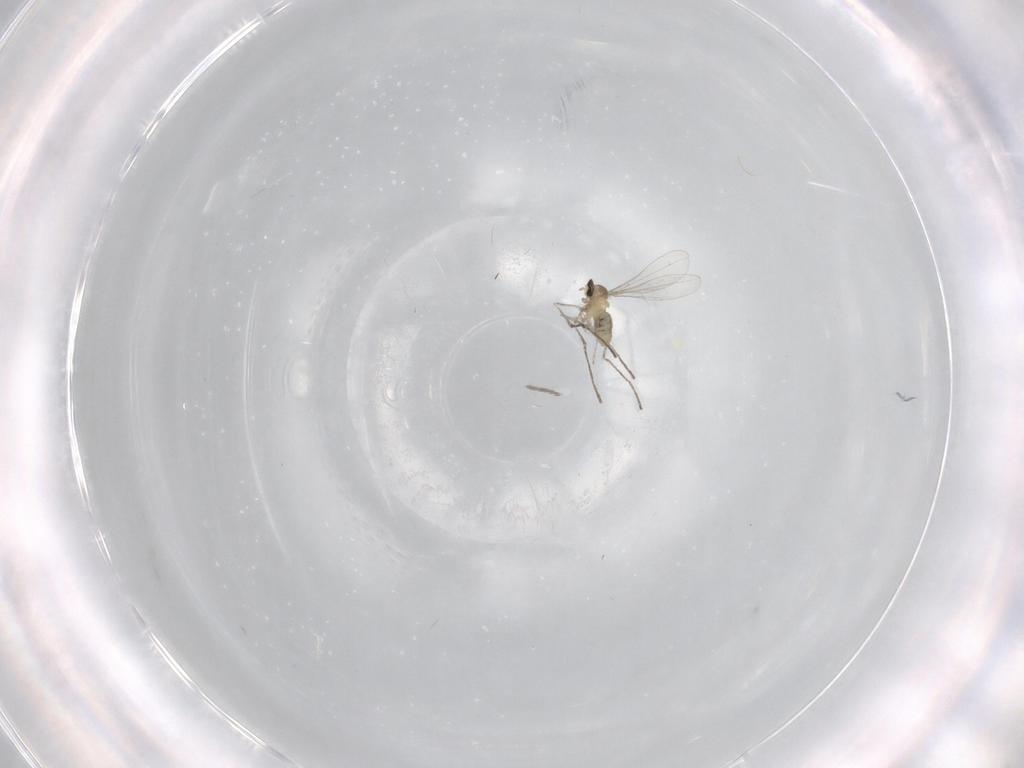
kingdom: Animalia
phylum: Arthropoda
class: Insecta
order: Diptera
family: Cecidomyiidae
